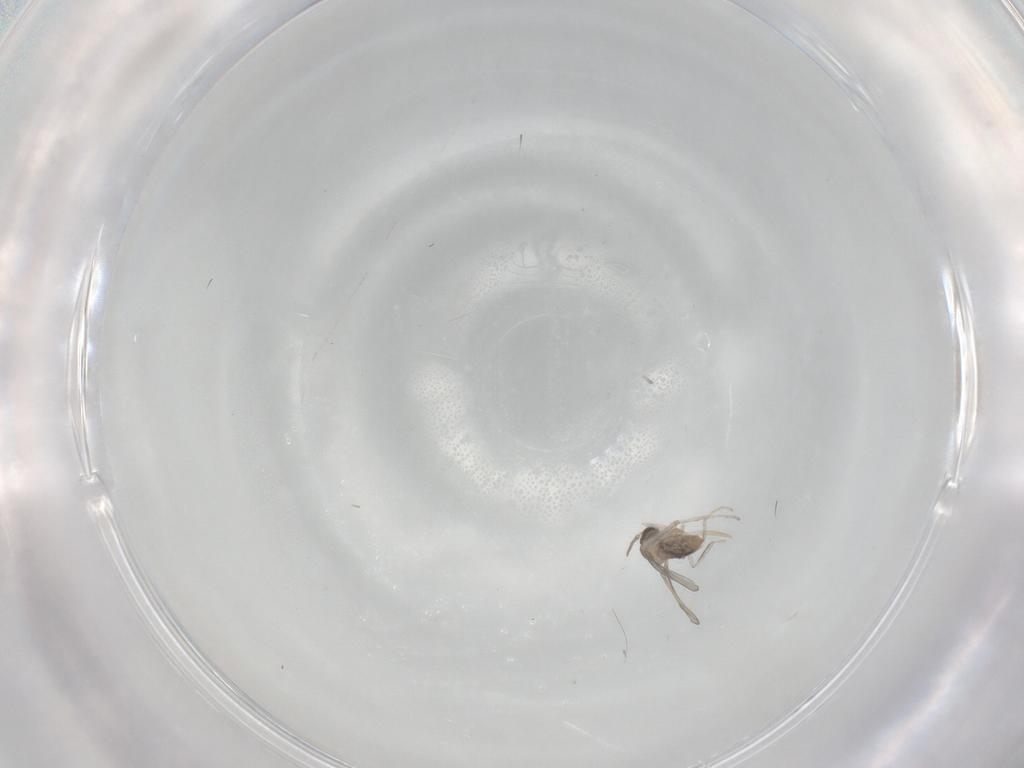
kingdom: Animalia
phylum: Arthropoda
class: Insecta
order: Diptera
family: Cecidomyiidae
